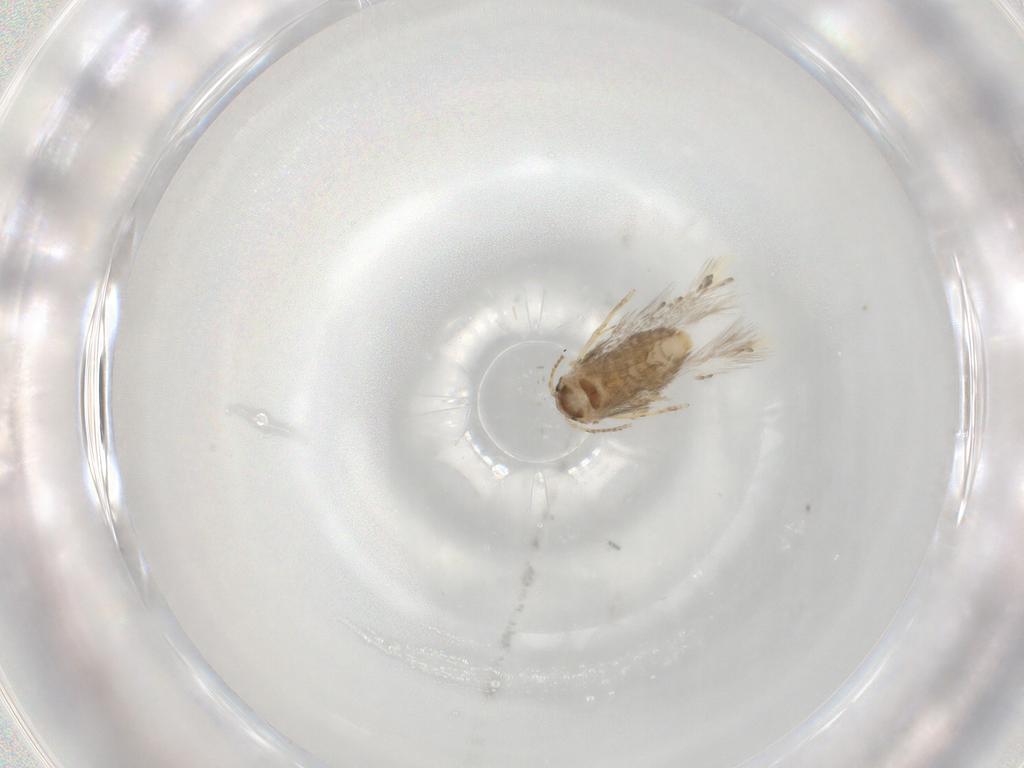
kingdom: Animalia
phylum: Arthropoda
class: Insecta
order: Lepidoptera
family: Nepticulidae
